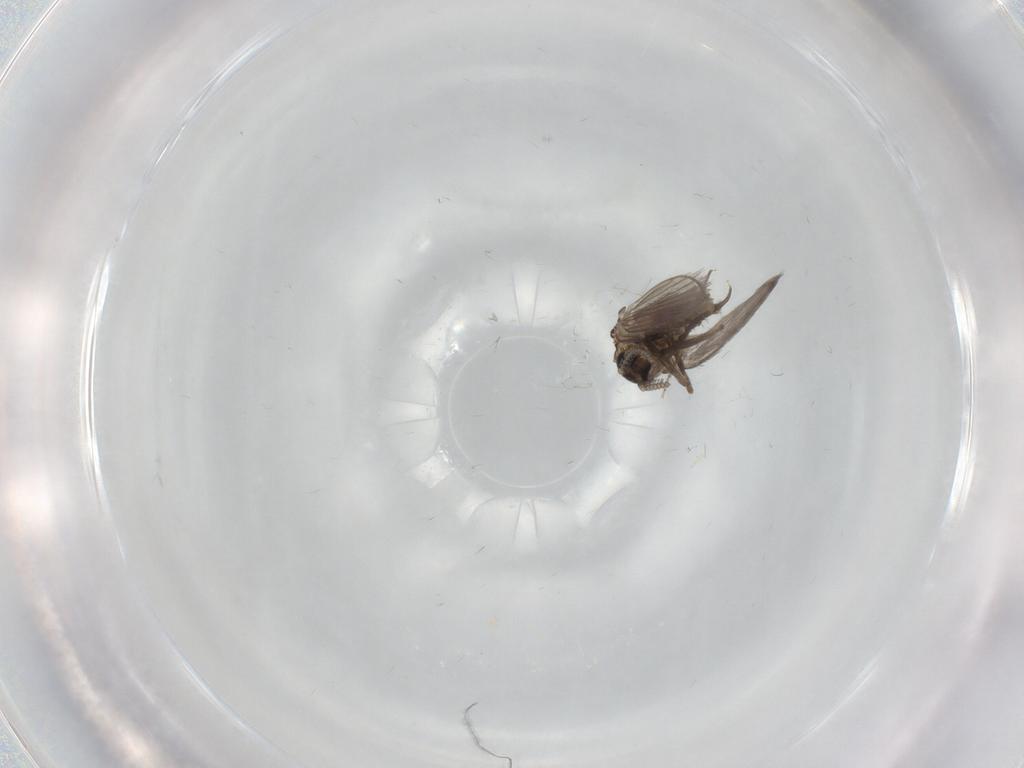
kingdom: Animalia
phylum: Arthropoda
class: Insecta
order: Diptera
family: Psychodidae
